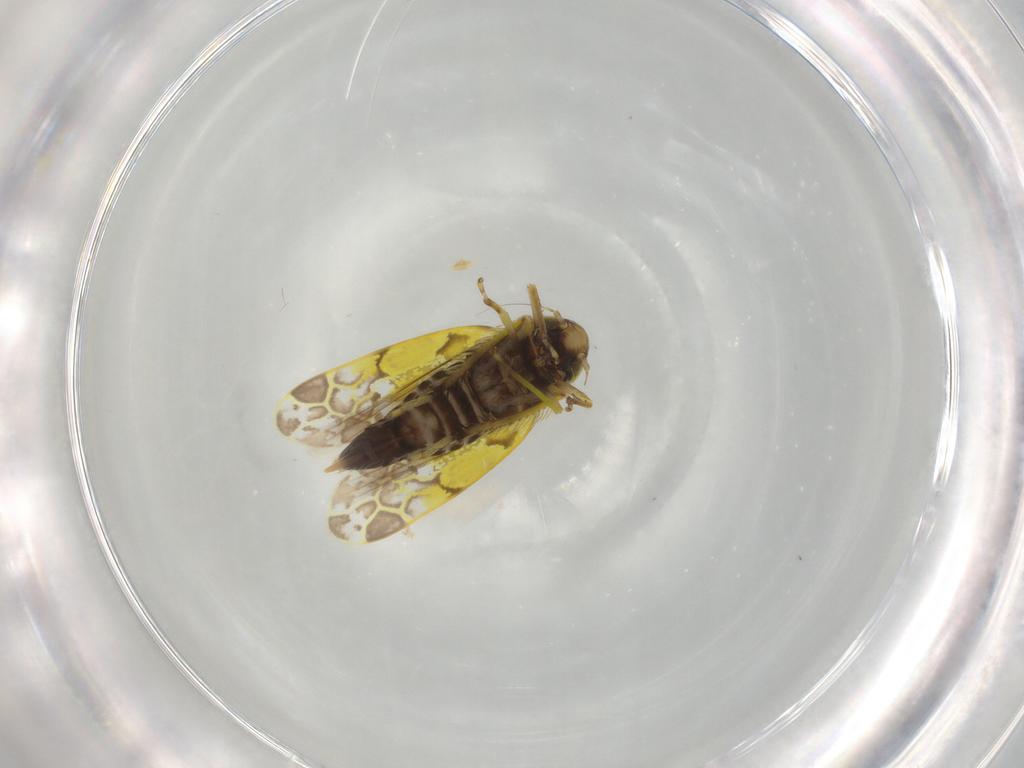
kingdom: Animalia
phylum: Arthropoda
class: Insecta
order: Hemiptera
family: Cicadellidae
